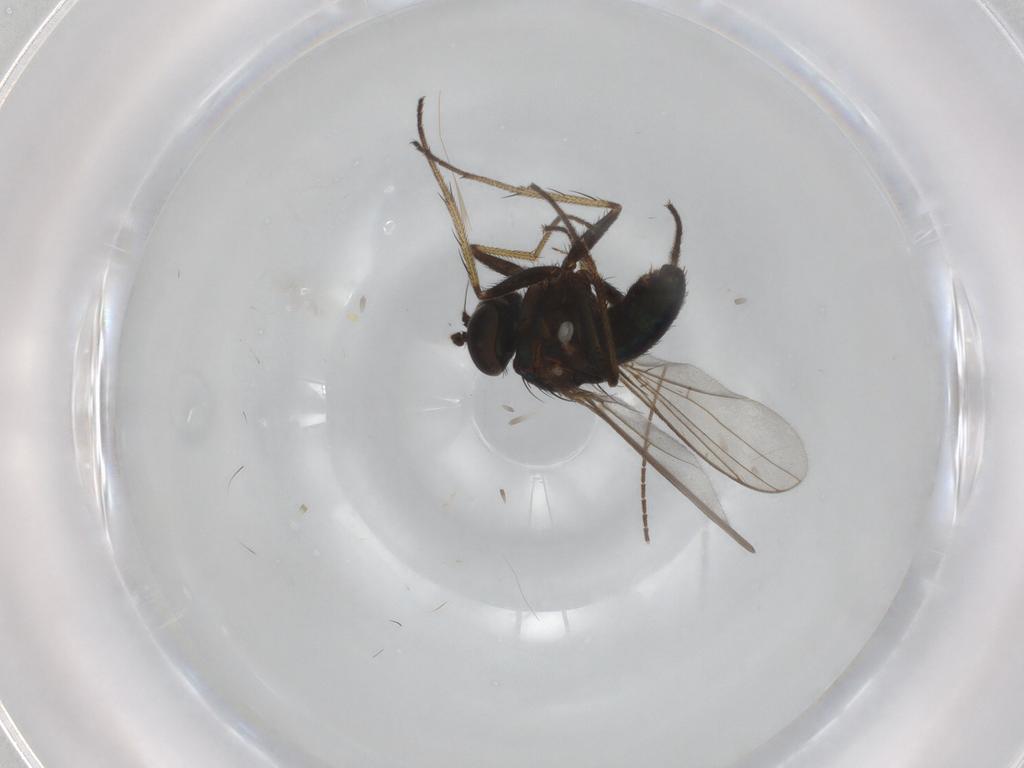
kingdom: Animalia
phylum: Arthropoda
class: Insecta
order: Diptera
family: Dolichopodidae
